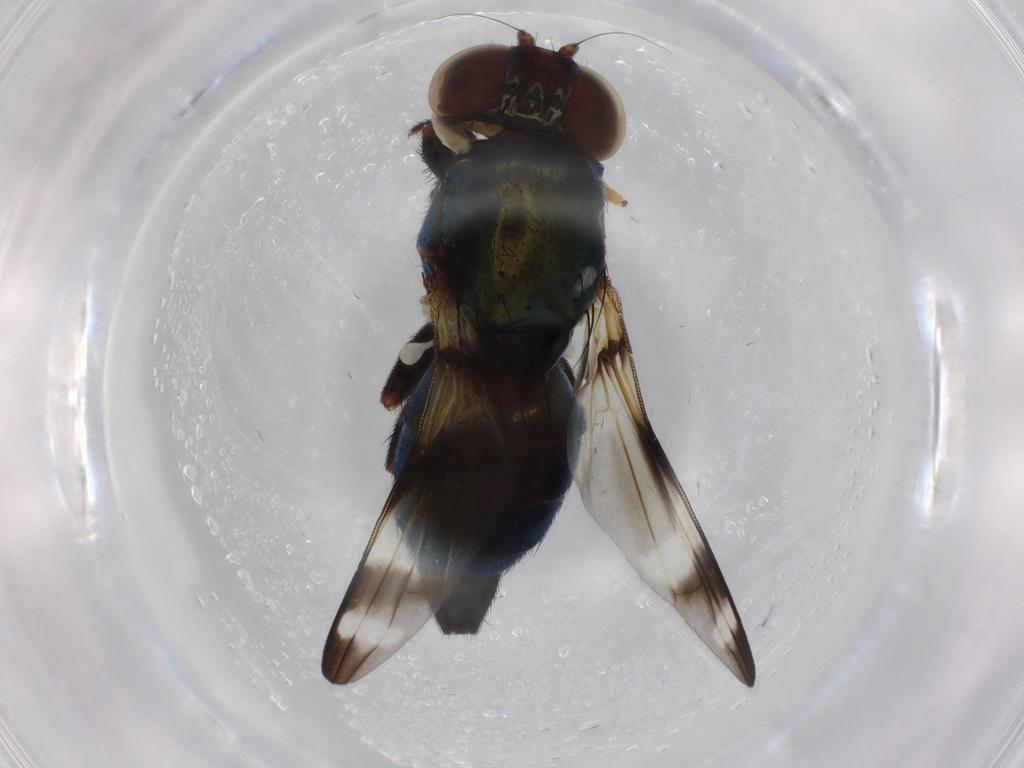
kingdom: Animalia
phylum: Arthropoda
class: Insecta
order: Diptera
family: Ulidiidae
